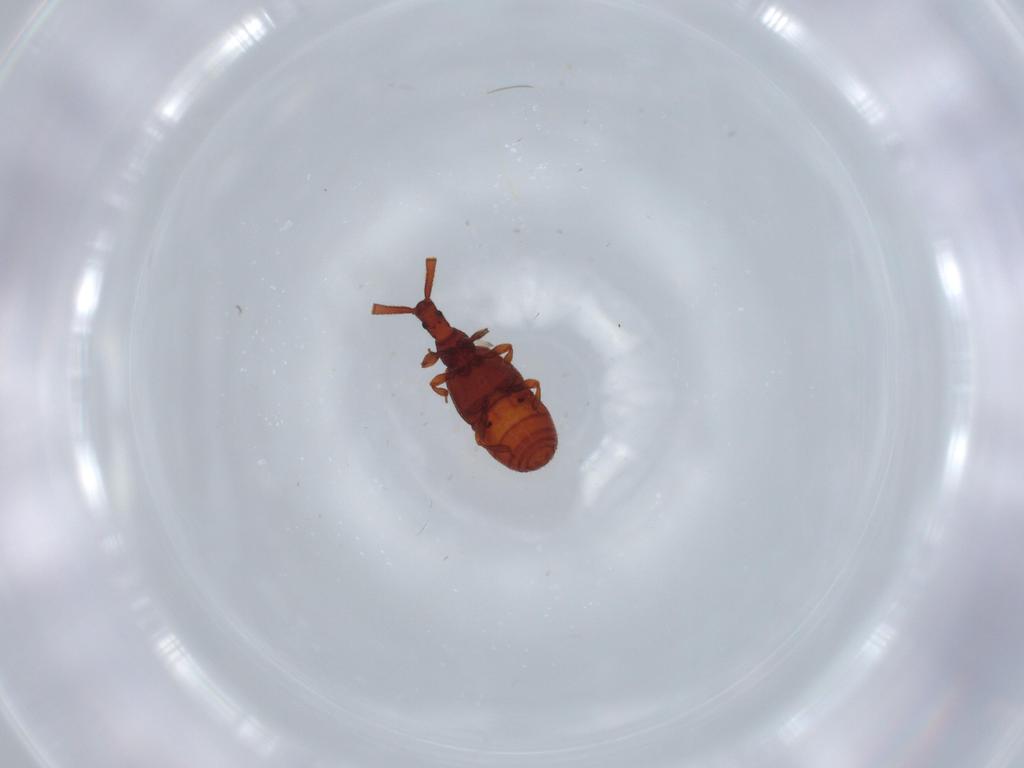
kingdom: Animalia
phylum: Arthropoda
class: Insecta
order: Coleoptera
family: Staphylinidae
